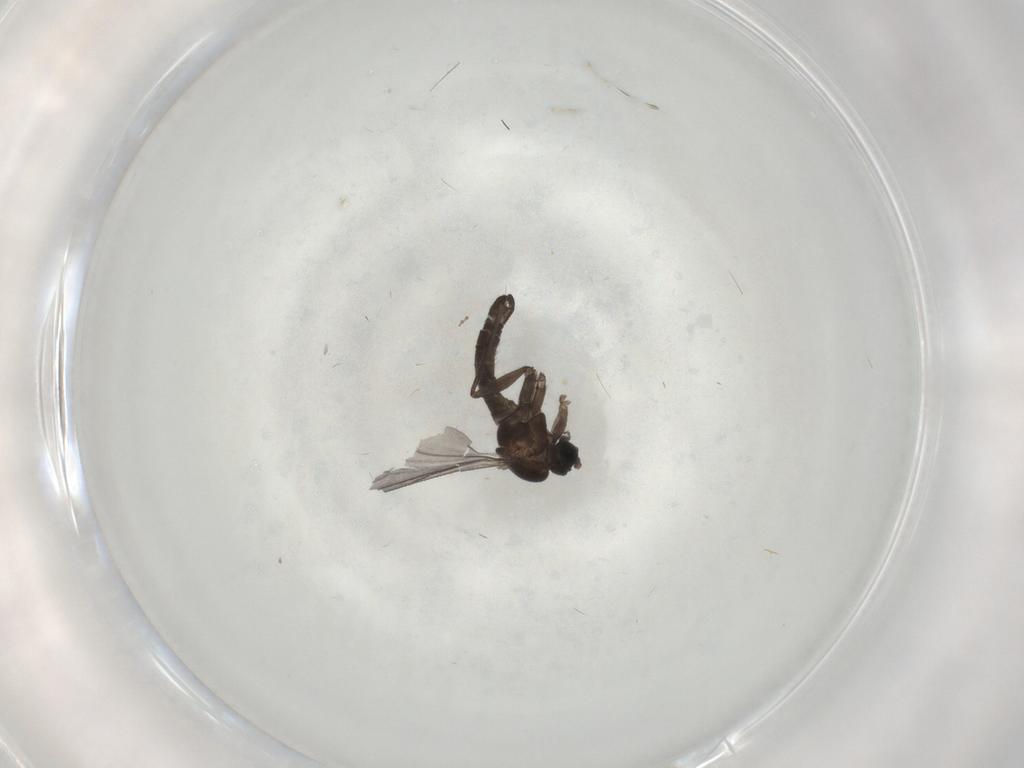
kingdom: Animalia
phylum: Arthropoda
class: Insecta
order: Diptera
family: Sciaridae
